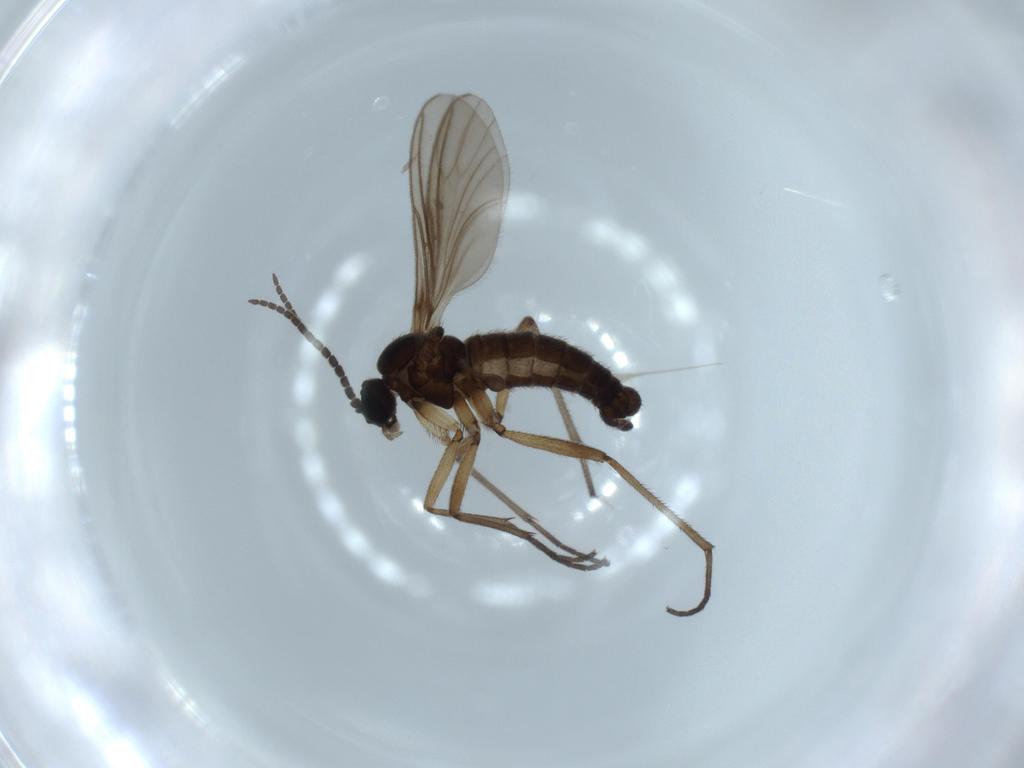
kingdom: Animalia
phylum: Arthropoda
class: Insecta
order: Diptera
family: Sciaridae
